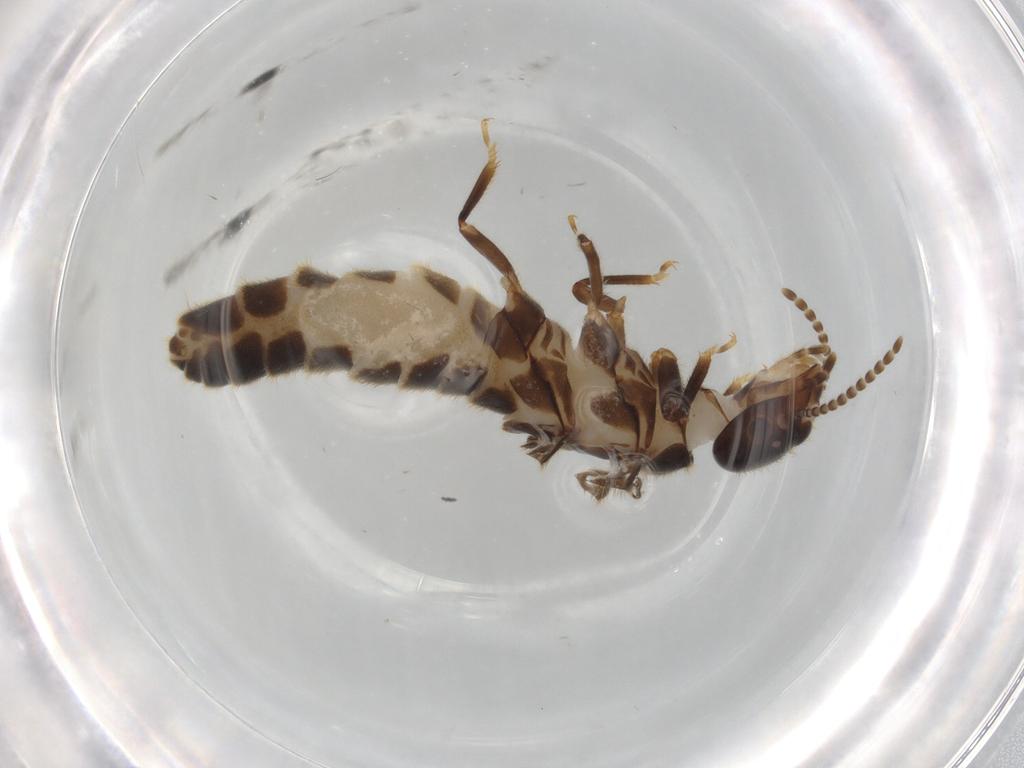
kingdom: Animalia
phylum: Arthropoda
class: Insecta
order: Blattodea
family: Termitidae
